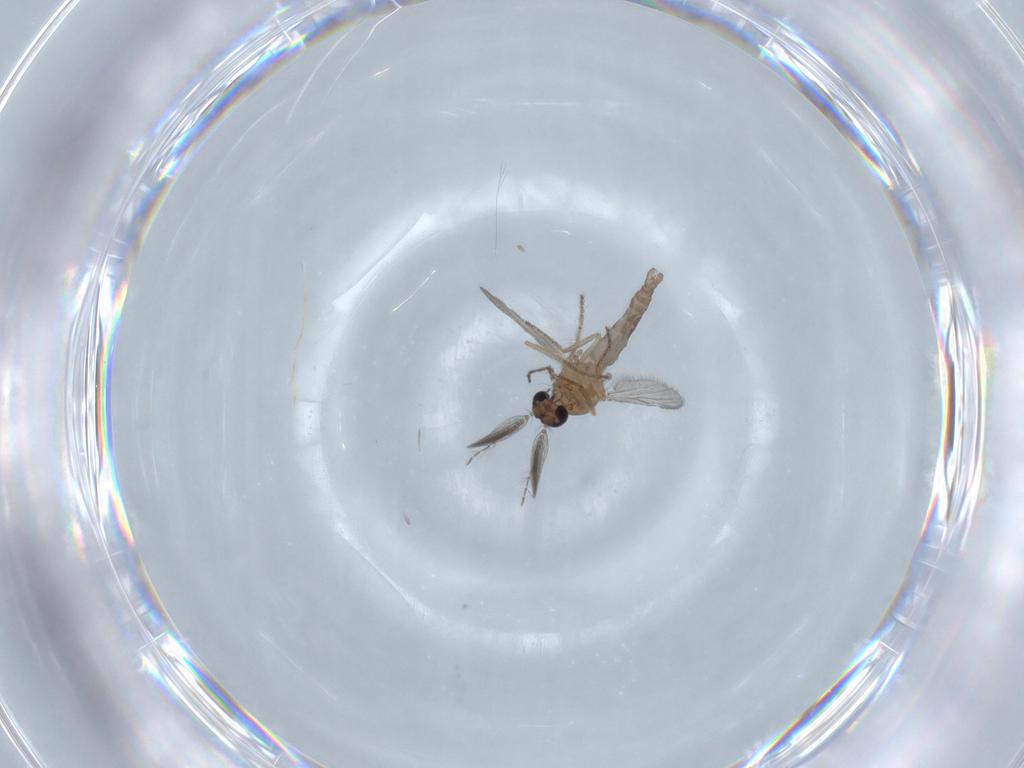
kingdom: Animalia
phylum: Arthropoda
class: Insecta
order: Diptera
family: Ceratopogonidae
